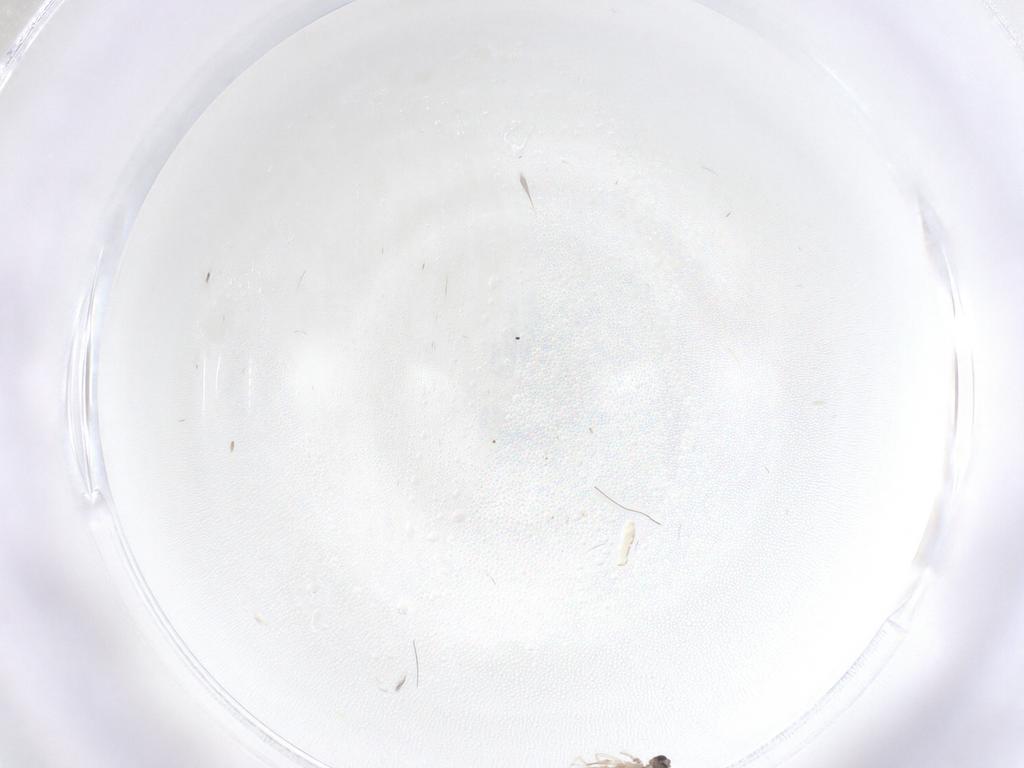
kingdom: Animalia
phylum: Arthropoda
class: Insecta
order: Diptera
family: Cecidomyiidae
